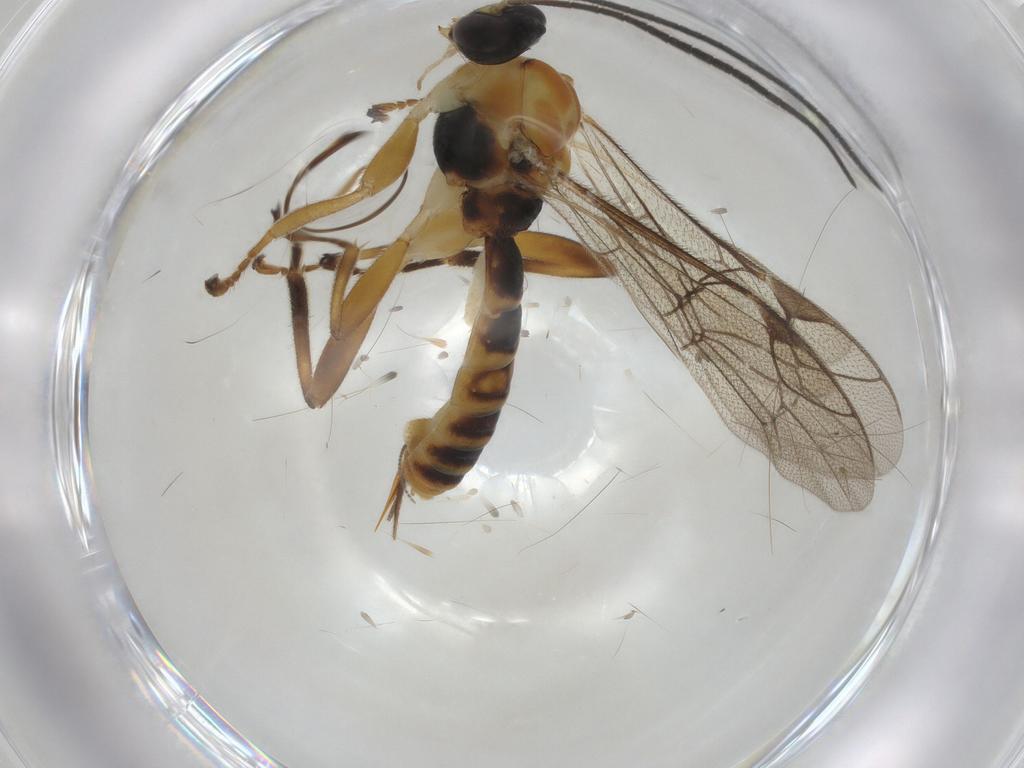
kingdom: Animalia
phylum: Arthropoda
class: Insecta
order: Hymenoptera
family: Ichneumonidae
